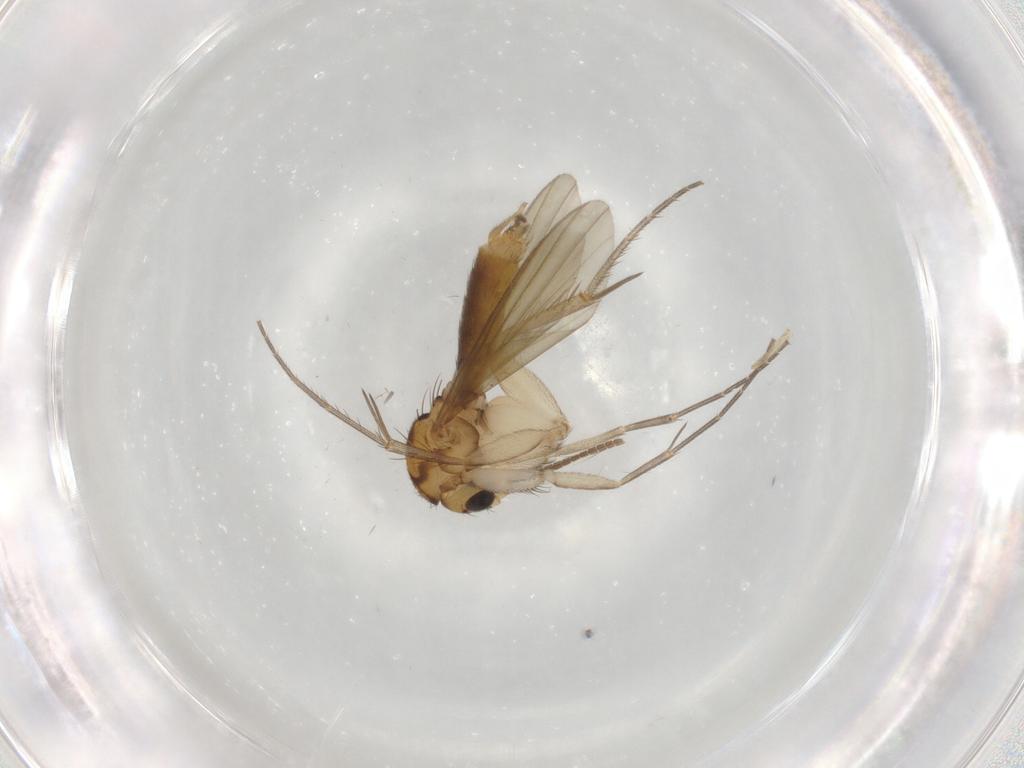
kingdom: Animalia
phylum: Arthropoda
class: Insecta
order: Diptera
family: Mycetophilidae
